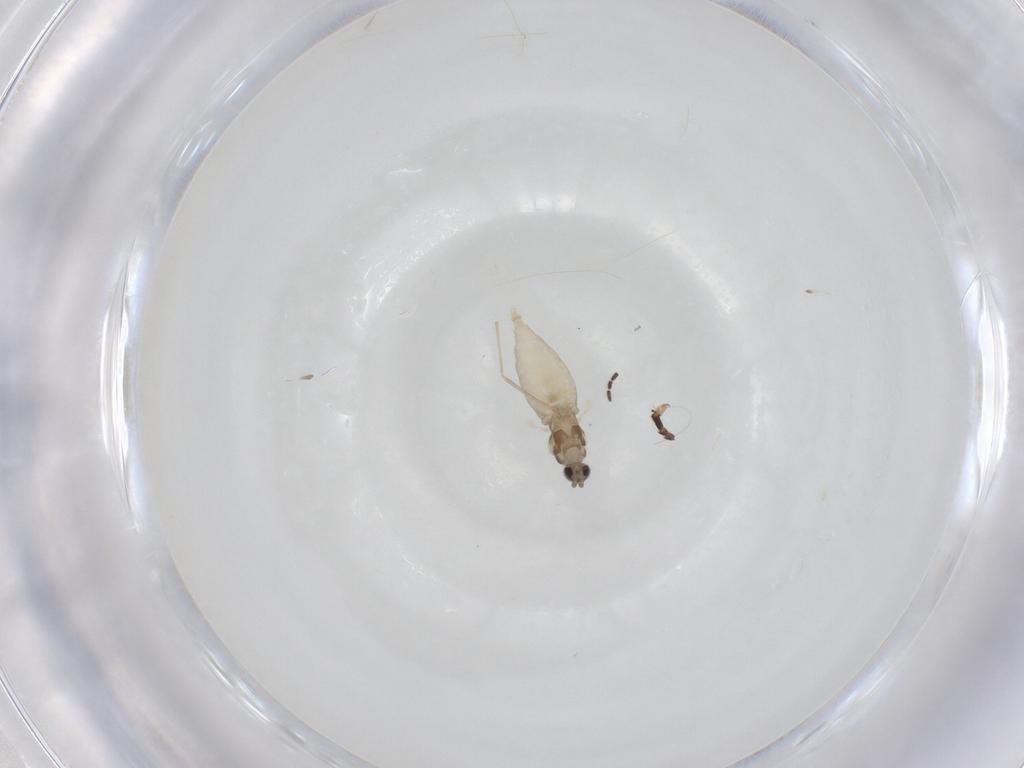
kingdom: Animalia
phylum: Arthropoda
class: Insecta
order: Diptera
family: Cecidomyiidae
